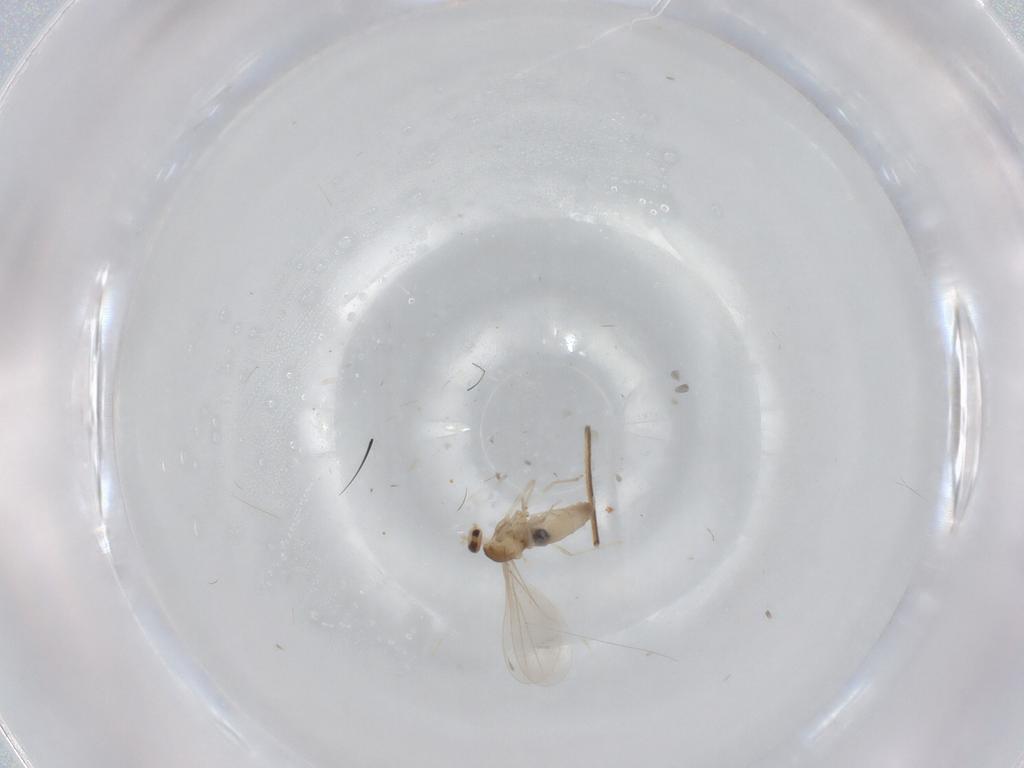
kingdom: Animalia
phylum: Arthropoda
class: Insecta
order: Diptera
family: Cecidomyiidae
